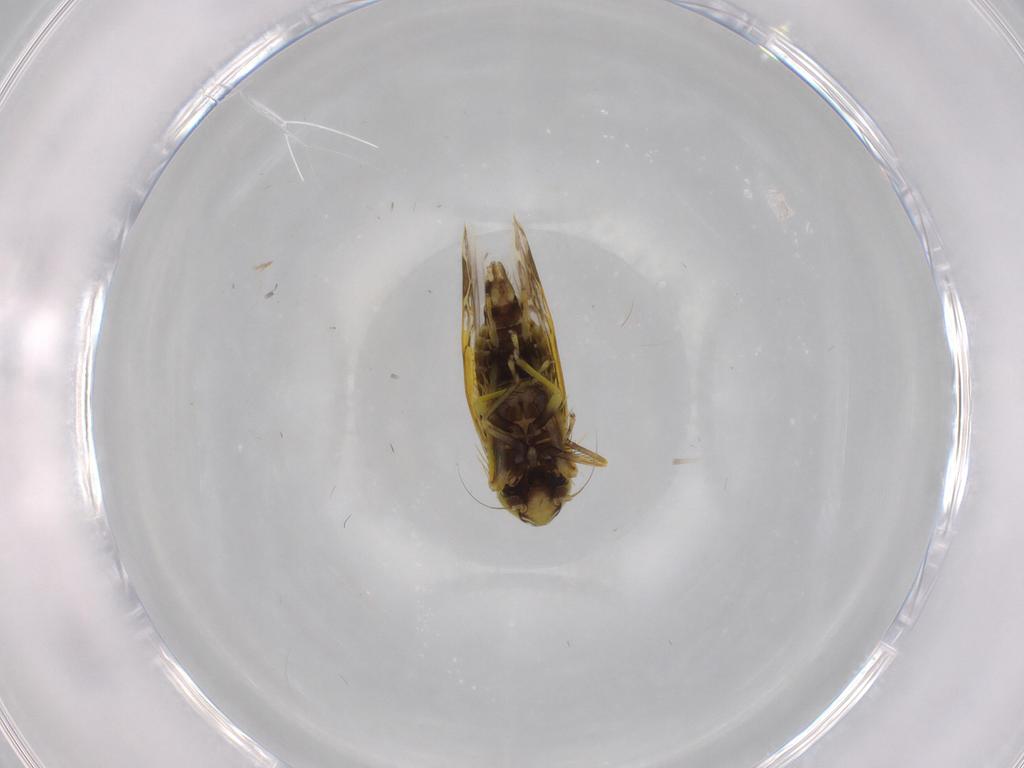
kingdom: Animalia
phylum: Arthropoda
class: Insecta
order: Hemiptera
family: Cicadellidae
